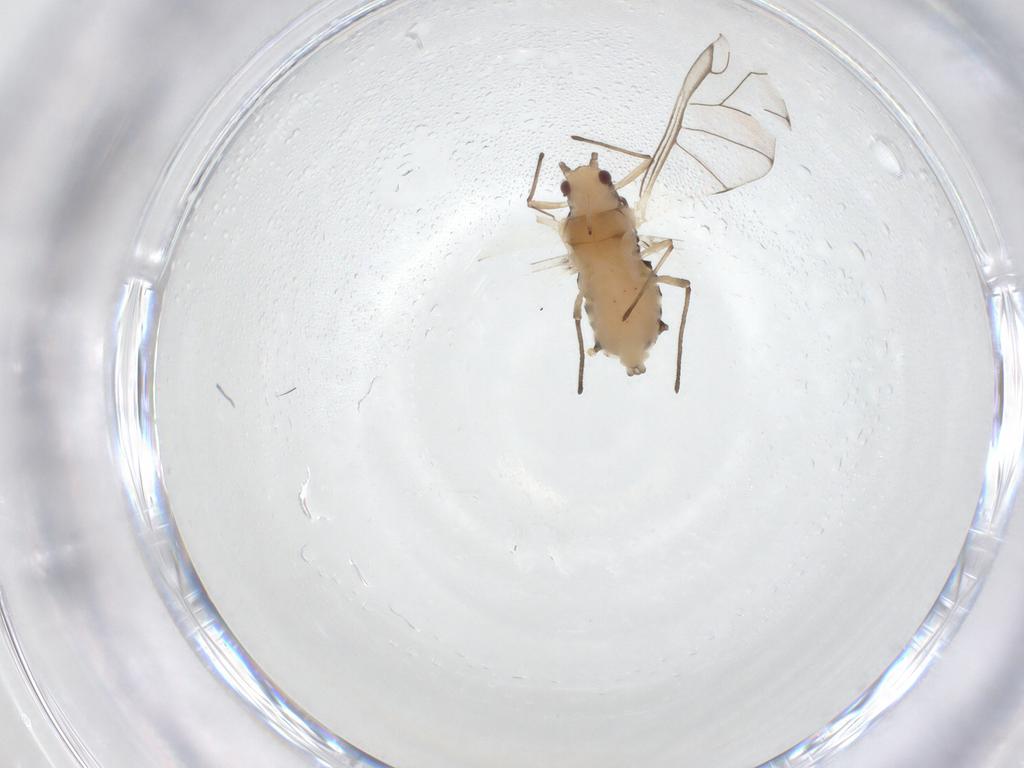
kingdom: Animalia
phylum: Arthropoda
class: Insecta
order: Hemiptera
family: Aphididae
